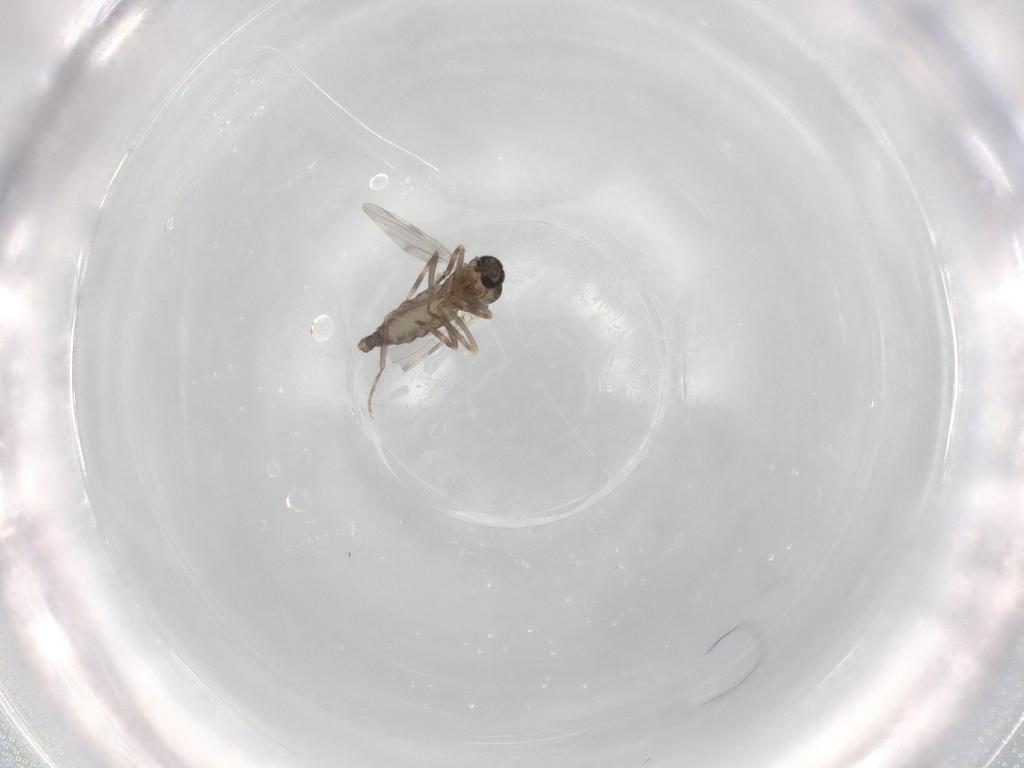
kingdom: Animalia
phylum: Arthropoda
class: Insecta
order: Diptera
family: Ceratopogonidae
